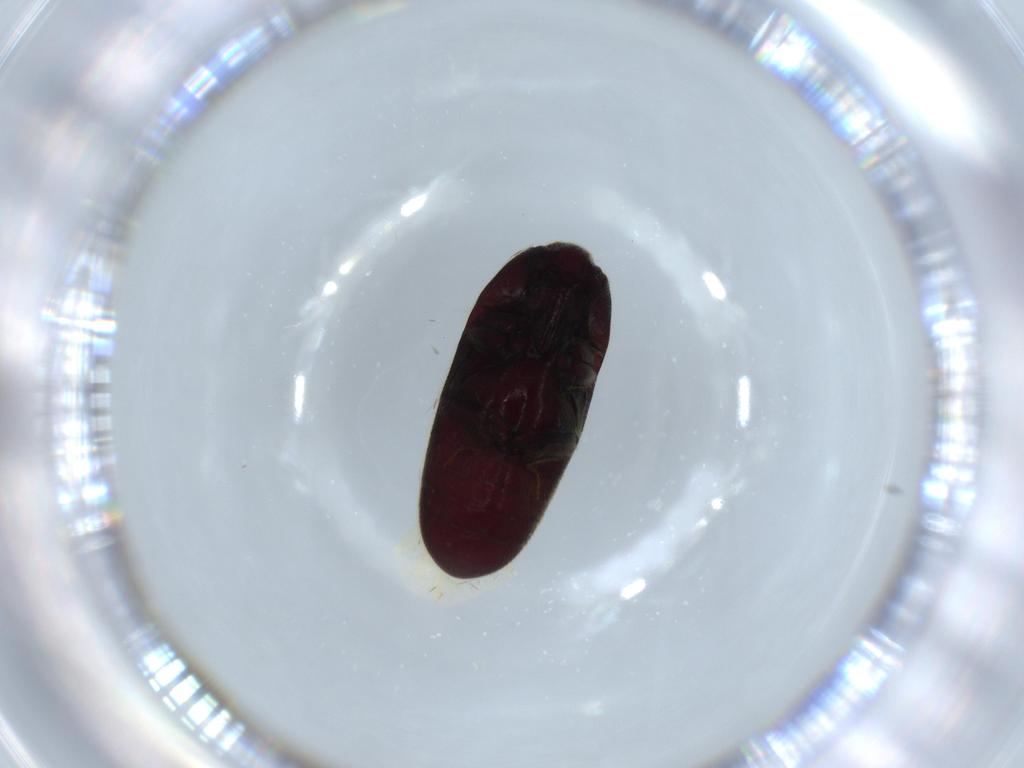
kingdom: Animalia
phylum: Arthropoda
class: Insecta
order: Coleoptera
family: Throscidae
